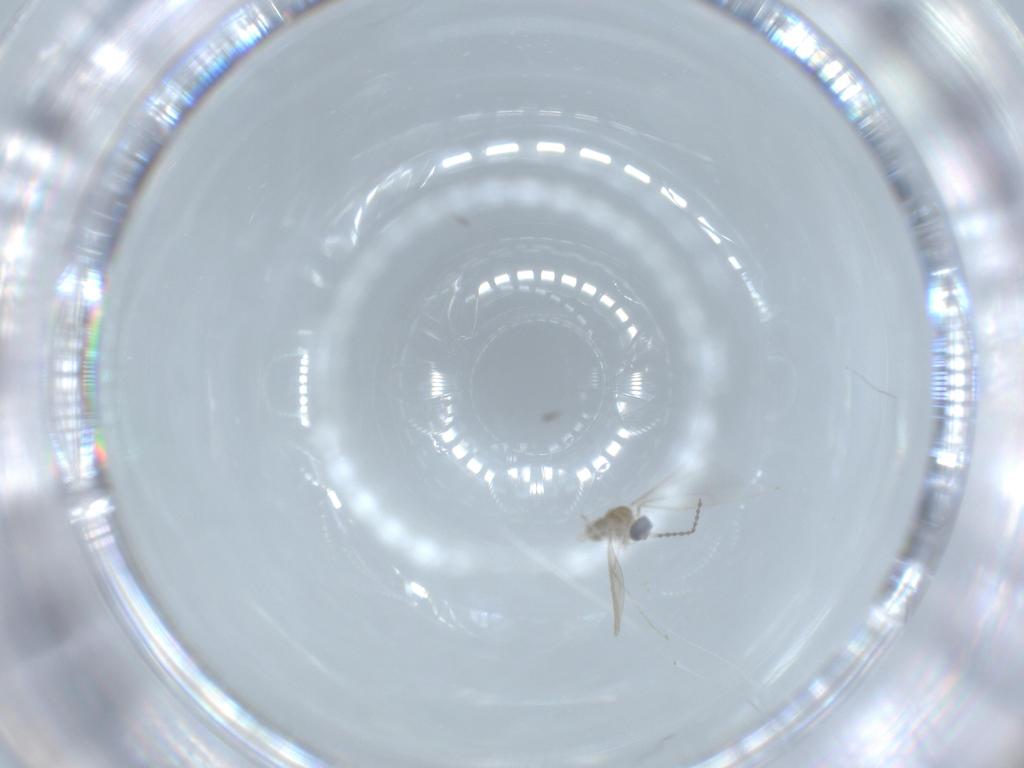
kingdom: Animalia
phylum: Arthropoda
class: Insecta
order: Diptera
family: Cecidomyiidae
